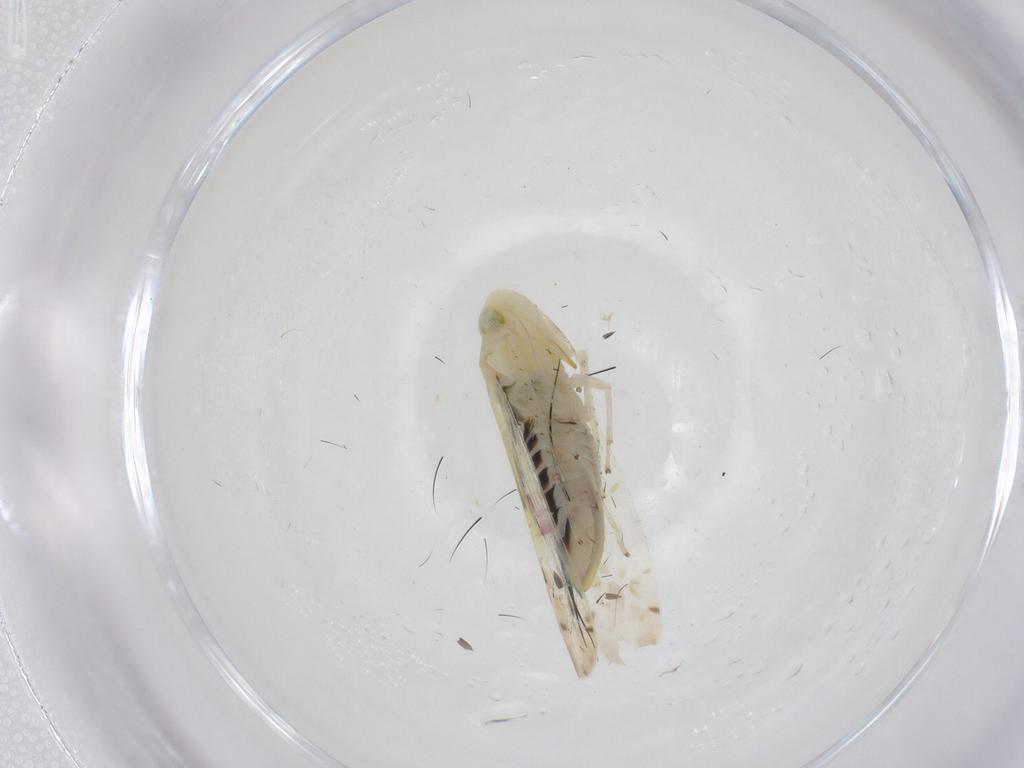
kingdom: Animalia
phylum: Arthropoda
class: Insecta
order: Hemiptera
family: Cicadellidae
